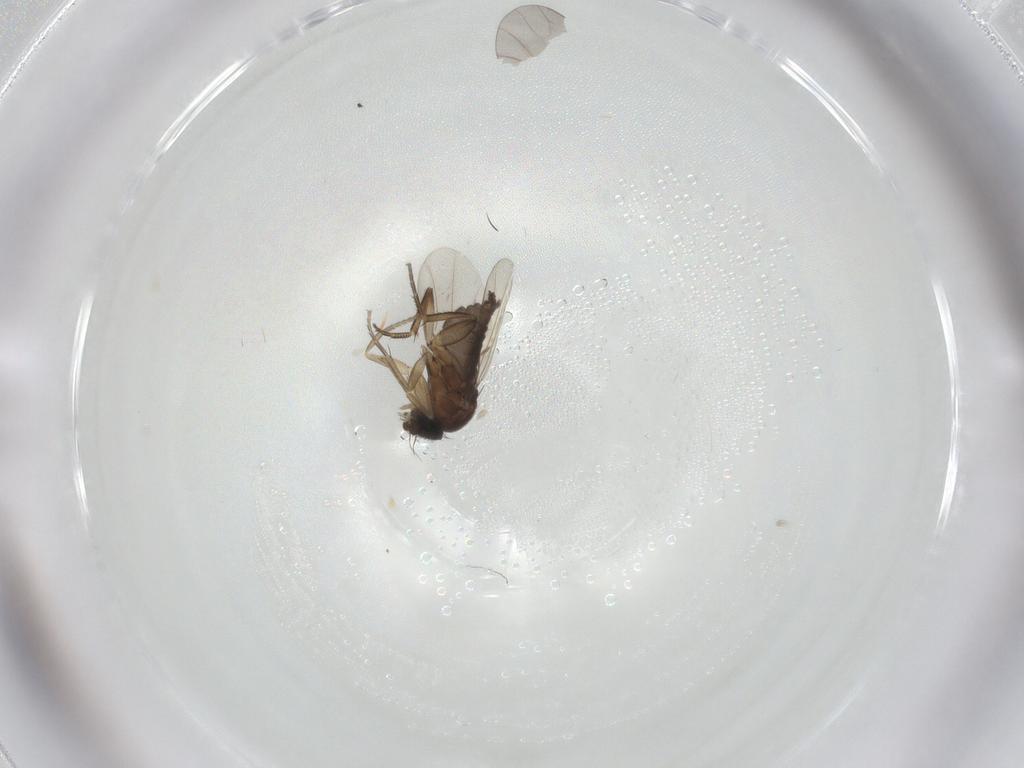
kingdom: Animalia
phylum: Arthropoda
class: Insecta
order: Diptera
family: Phoridae
